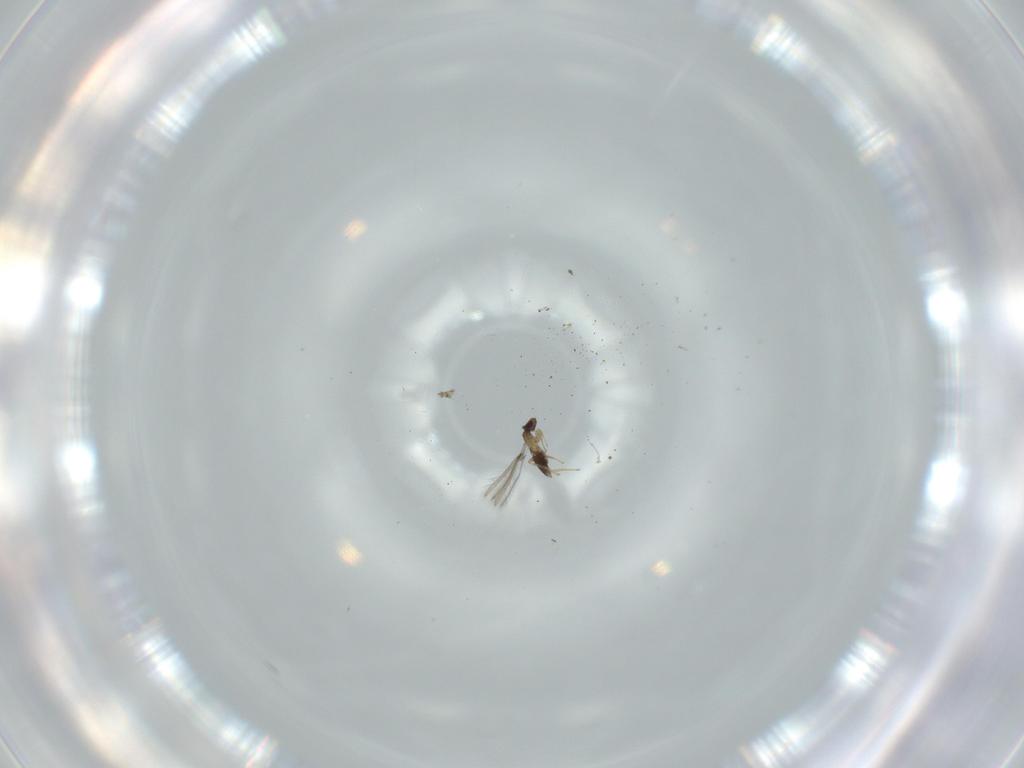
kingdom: Animalia
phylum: Arthropoda
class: Insecta
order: Hymenoptera
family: Mymaridae
